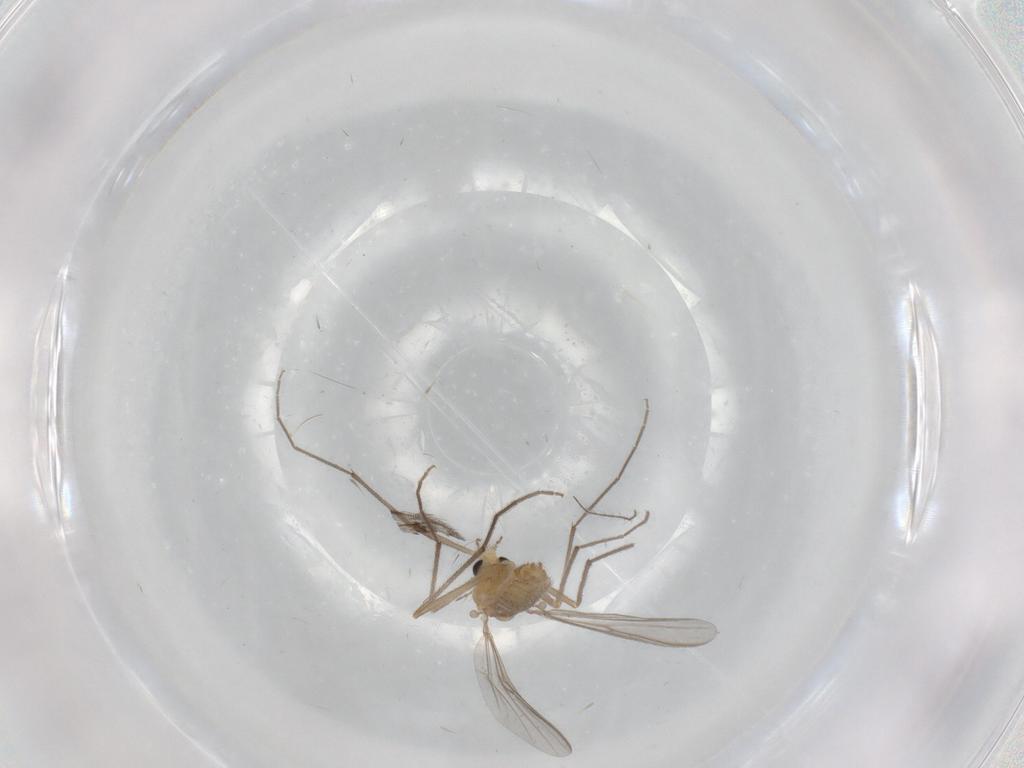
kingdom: Animalia
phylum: Arthropoda
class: Insecta
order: Diptera
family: Chironomidae
